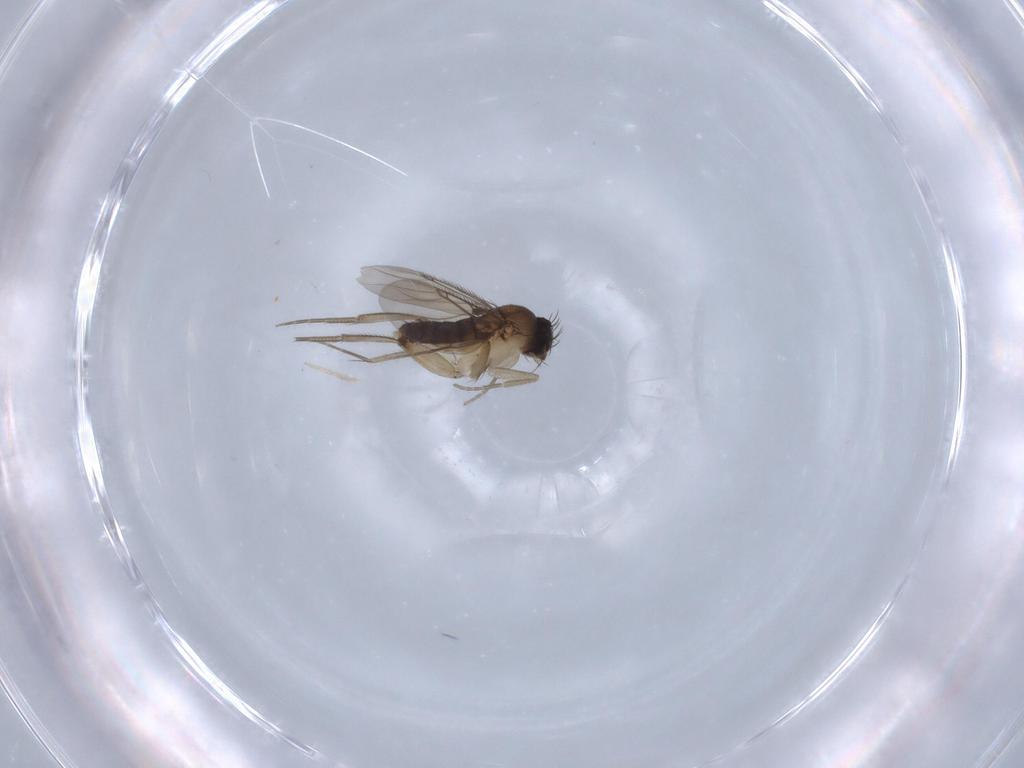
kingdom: Animalia
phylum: Arthropoda
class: Insecta
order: Diptera
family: Phoridae
